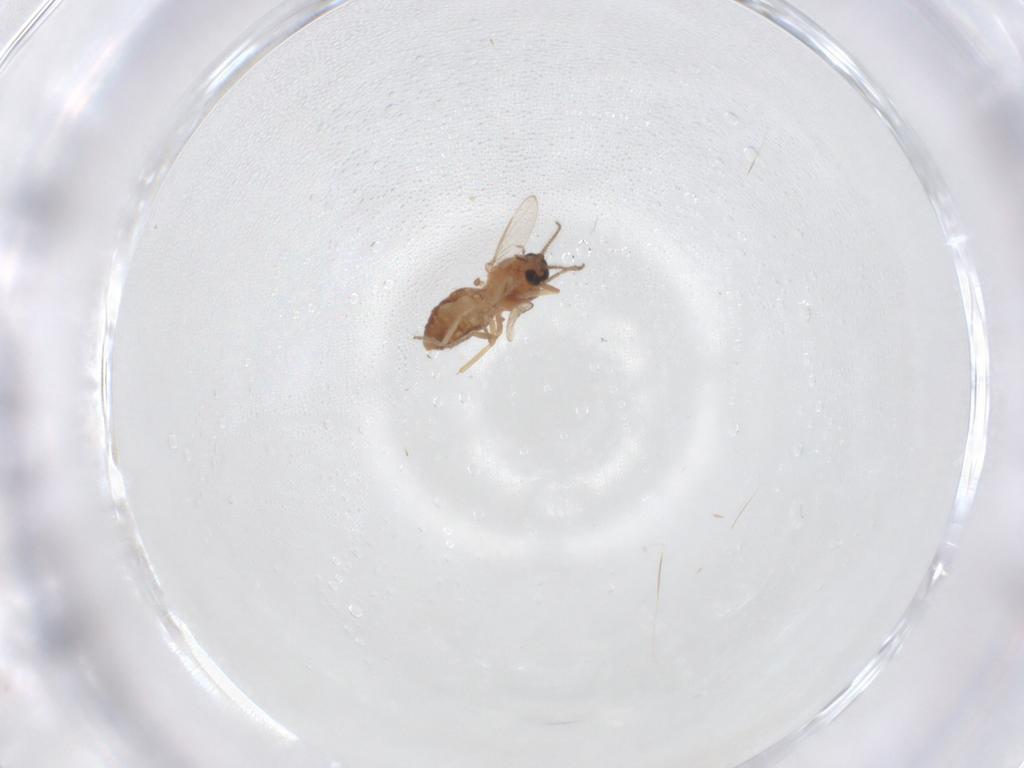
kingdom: Animalia
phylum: Arthropoda
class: Insecta
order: Diptera
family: Ceratopogonidae
